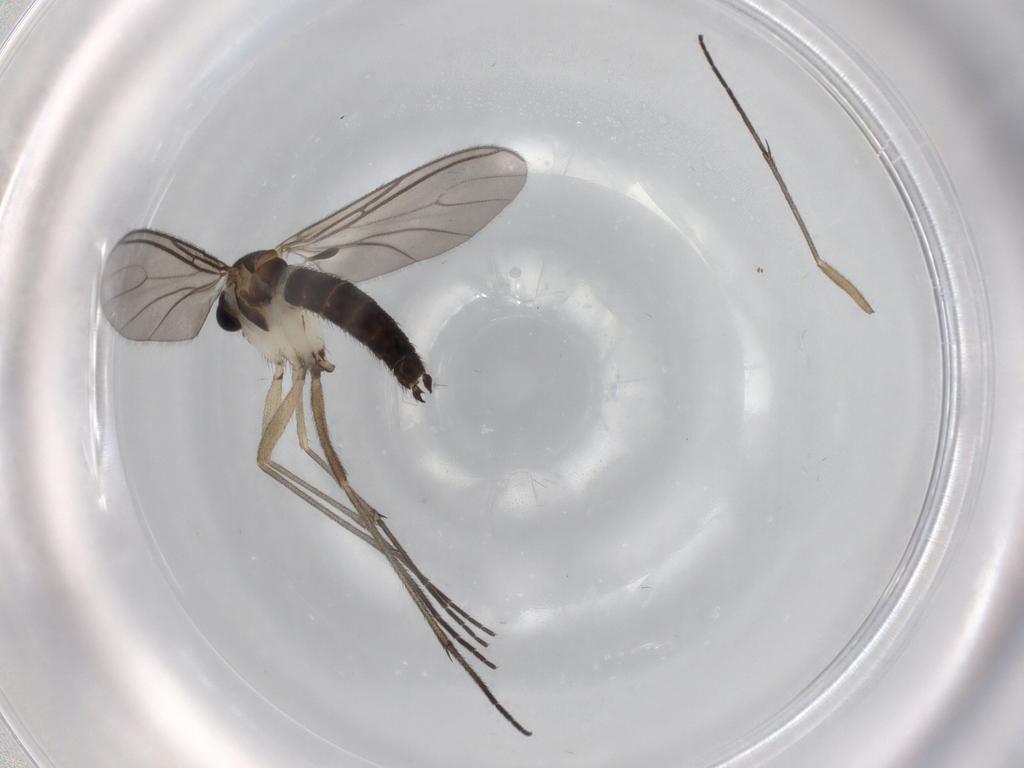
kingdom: Animalia
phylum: Arthropoda
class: Insecta
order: Diptera
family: Sciaridae
